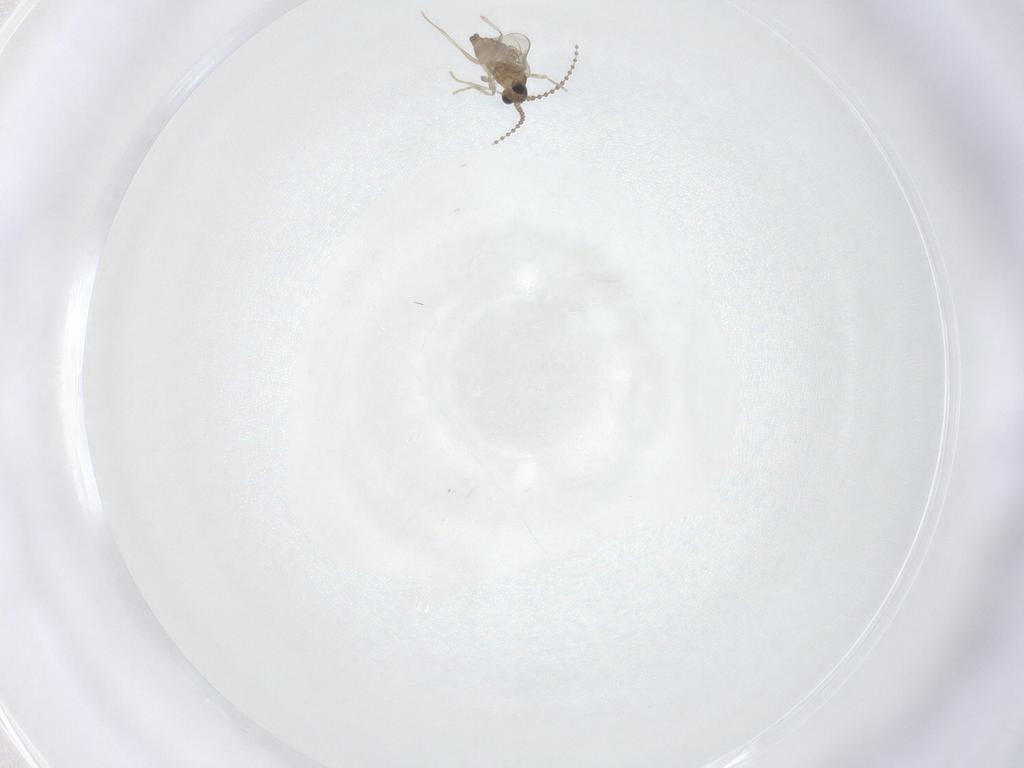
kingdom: Animalia
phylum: Arthropoda
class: Insecta
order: Diptera
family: Cecidomyiidae
